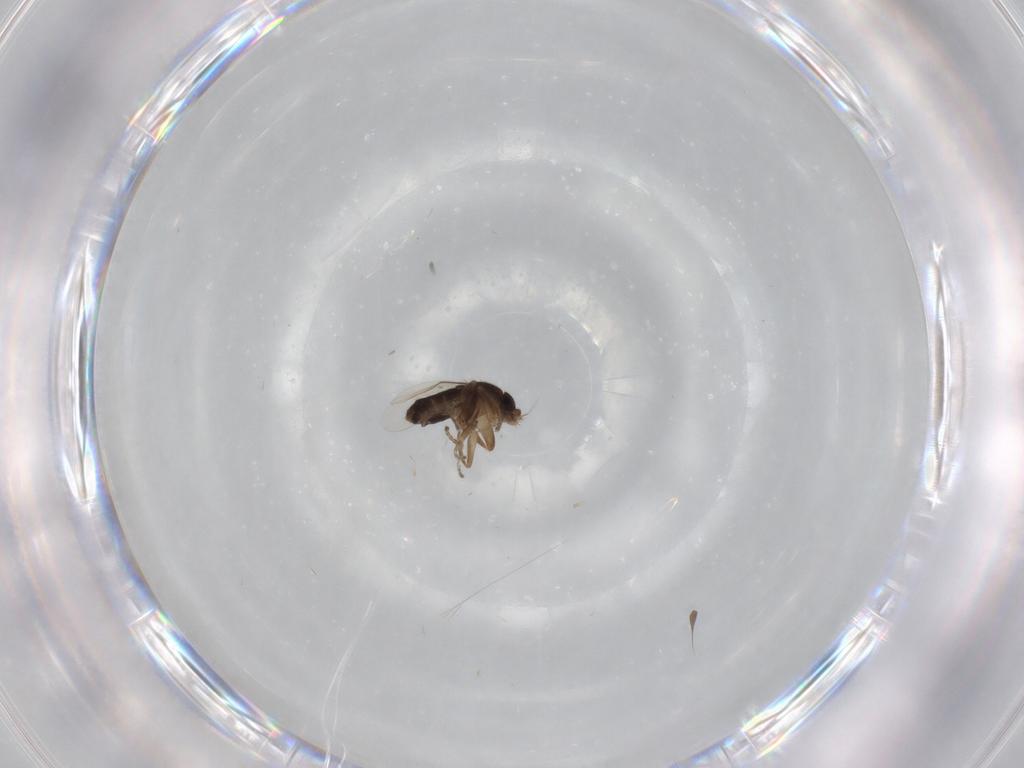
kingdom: Animalia
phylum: Arthropoda
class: Insecta
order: Diptera
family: Phoridae
